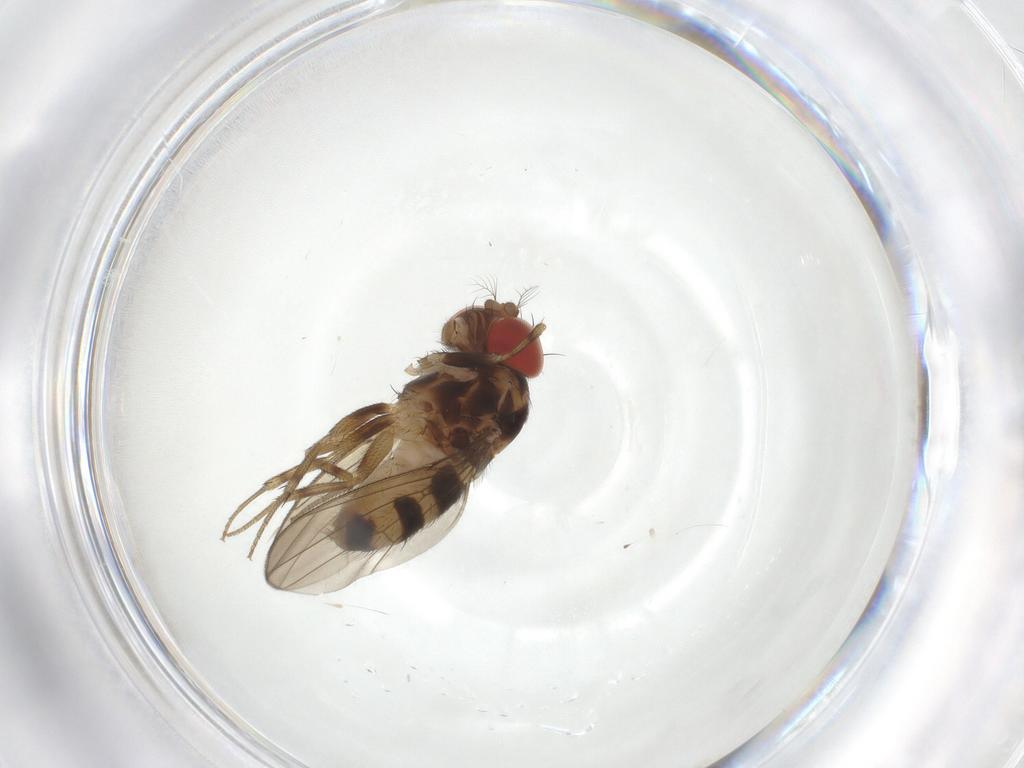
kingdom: Animalia
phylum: Arthropoda
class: Insecta
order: Diptera
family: Drosophilidae
